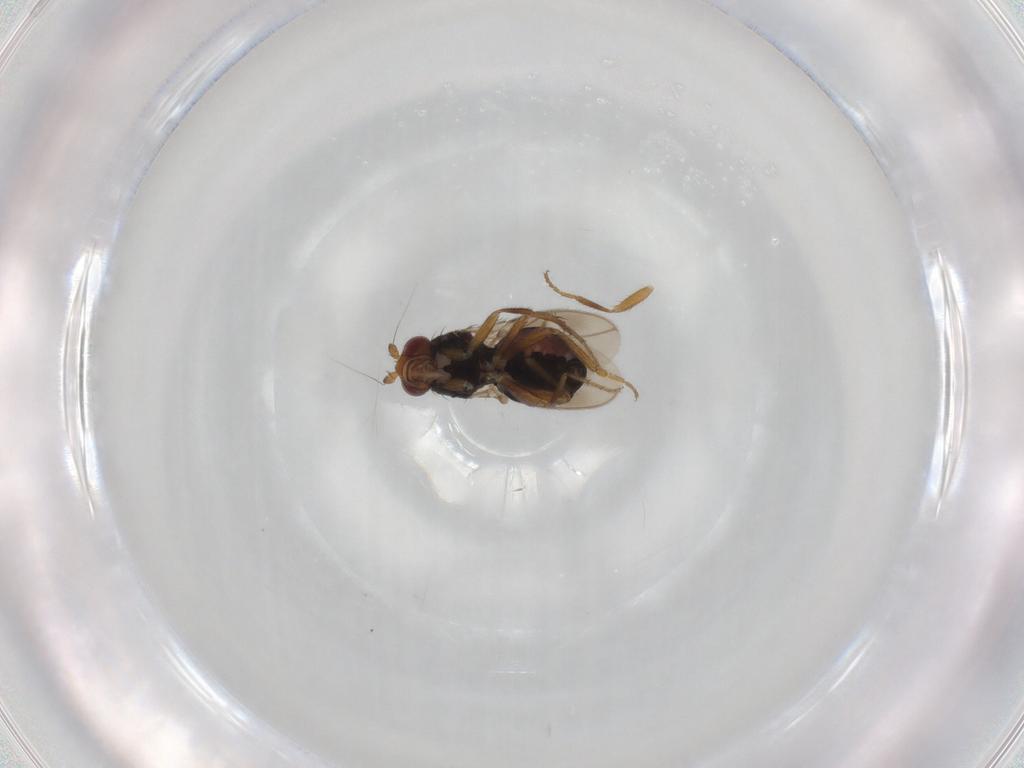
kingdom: Animalia
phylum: Arthropoda
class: Insecta
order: Diptera
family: Sphaeroceridae
